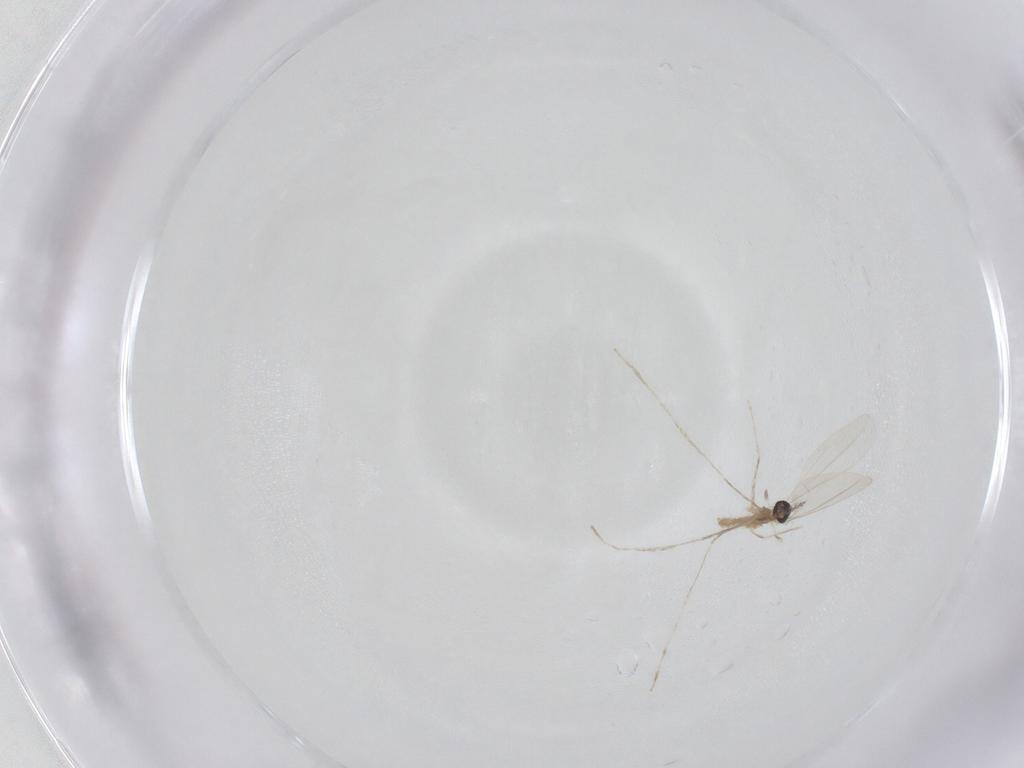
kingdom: Animalia
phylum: Arthropoda
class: Insecta
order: Diptera
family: Cecidomyiidae
